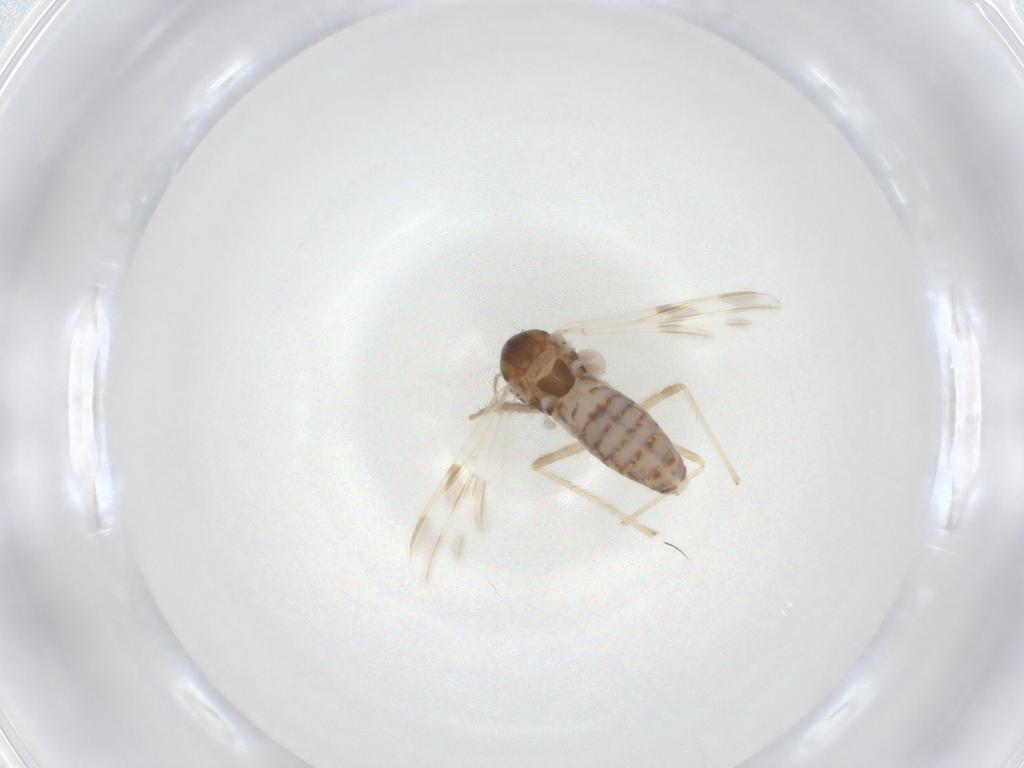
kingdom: Animalia
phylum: Arthropoda
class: Insecta
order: Diptera
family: Chironomidae
